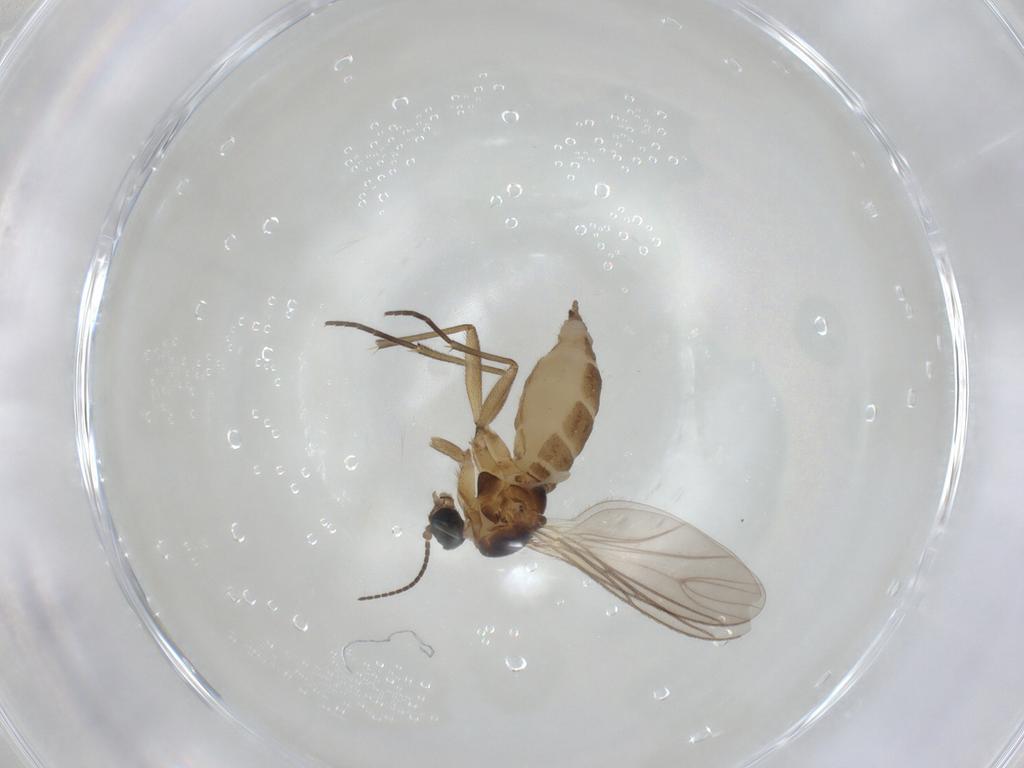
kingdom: Animalia
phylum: Arthropoda
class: Insecta
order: Diptera
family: Sciaridae
